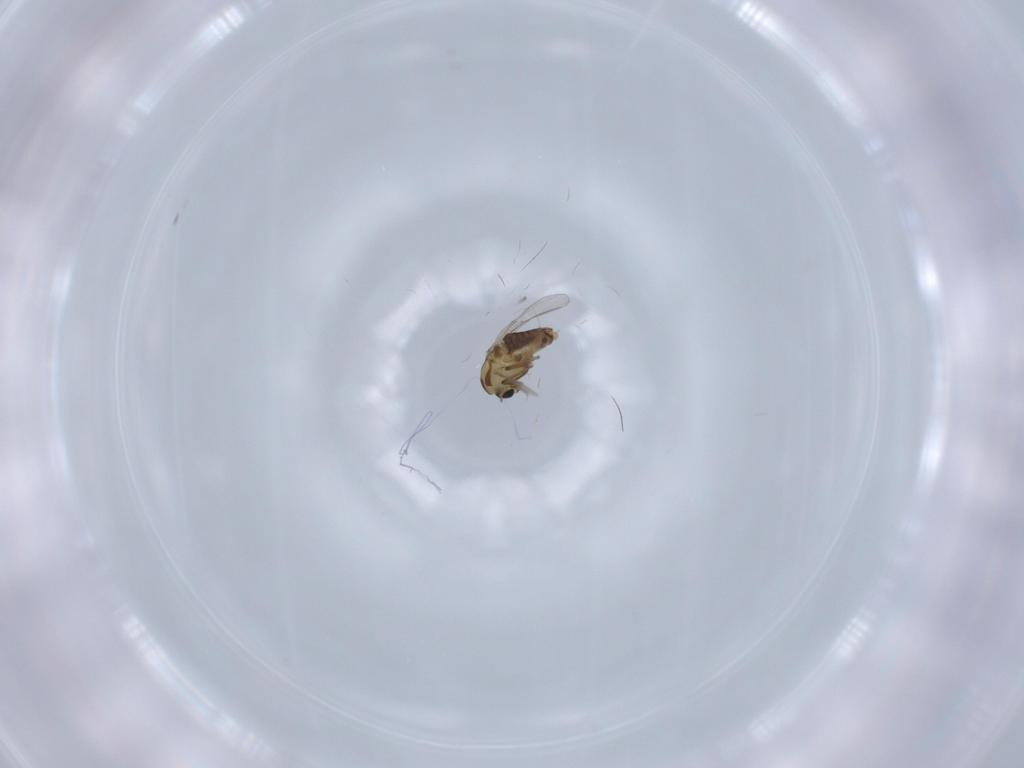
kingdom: Animalia
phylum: Arthropoda
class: Insecta
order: Diptera
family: Chironomidae
